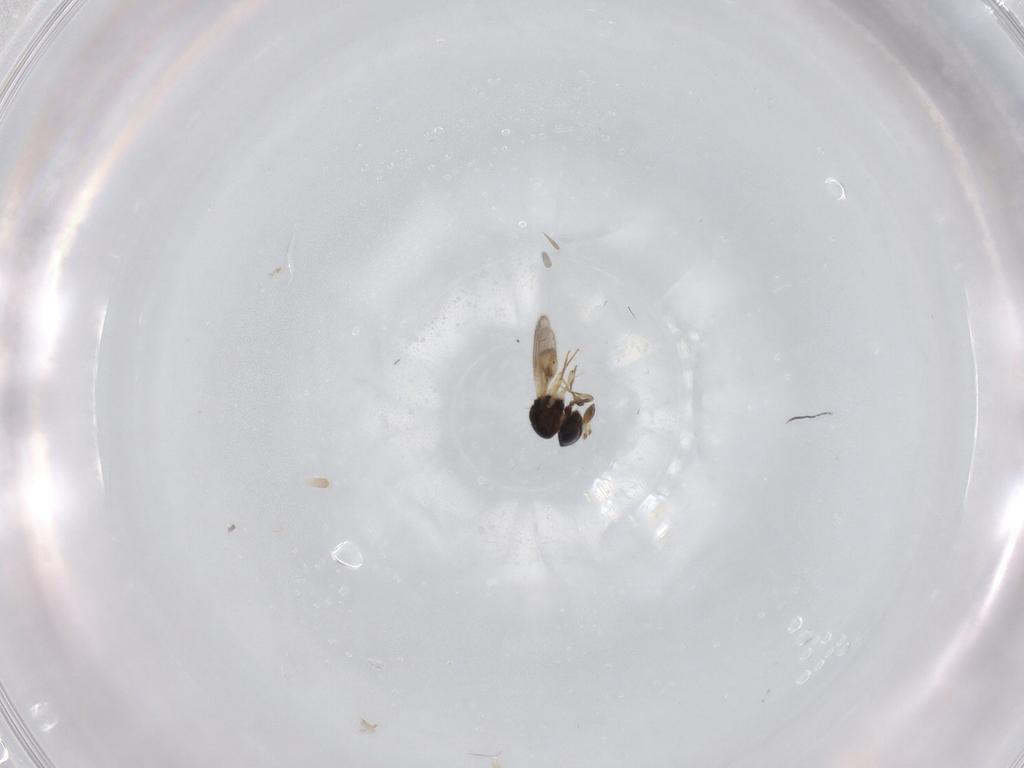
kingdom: Animalia
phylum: Arthropoda
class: Insecta
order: Hymenoptera
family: Scelionidae
